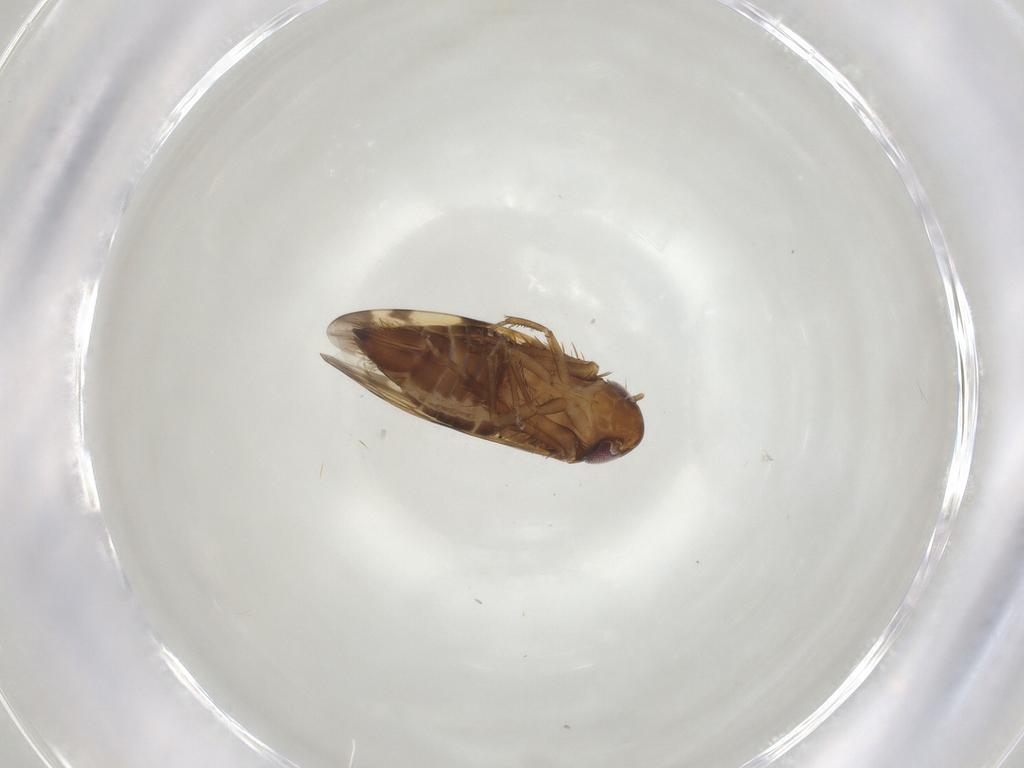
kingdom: Animalia
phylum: Arthropoda
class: Insecta
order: Hemiptera
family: Cicadellidae
